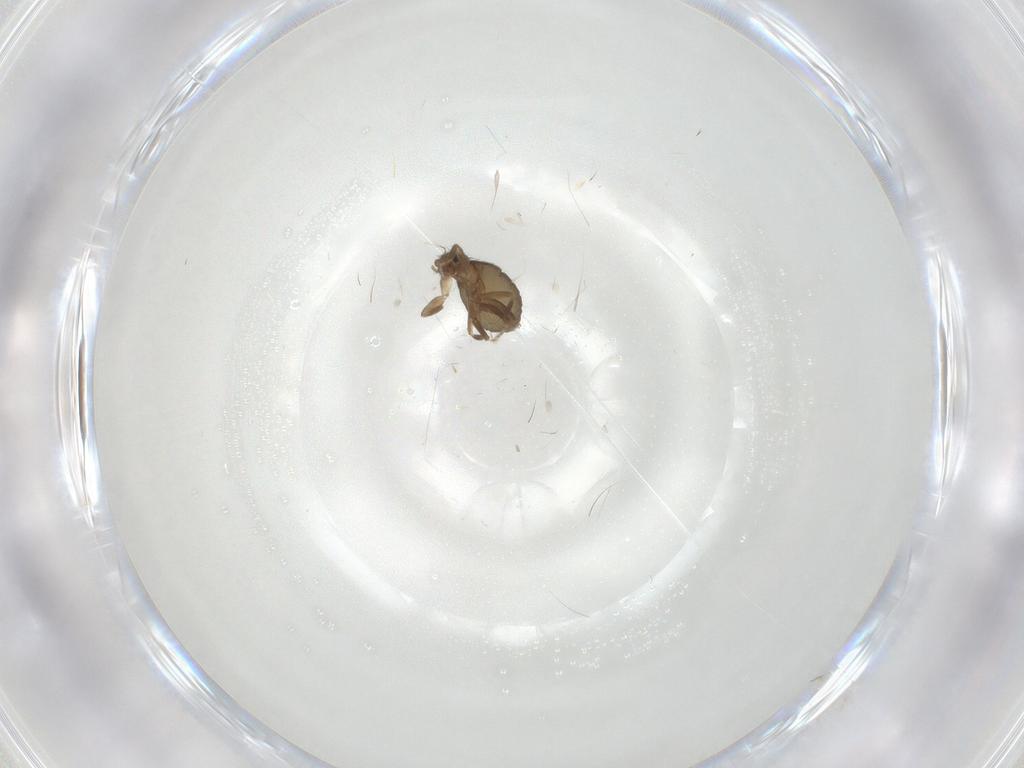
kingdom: Animalia
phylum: Arthropoda
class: Insecta
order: Diptera
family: Phoridae
